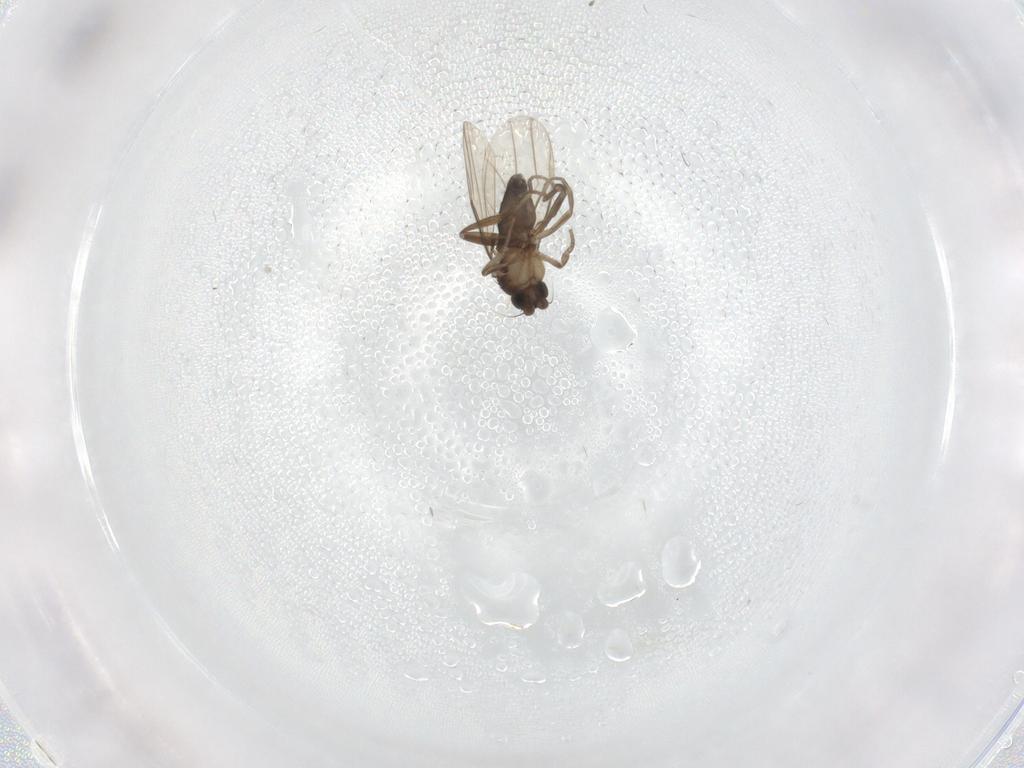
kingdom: Animalia
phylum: Arthropoda
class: Insecta
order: Diptera
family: Psychodidae
